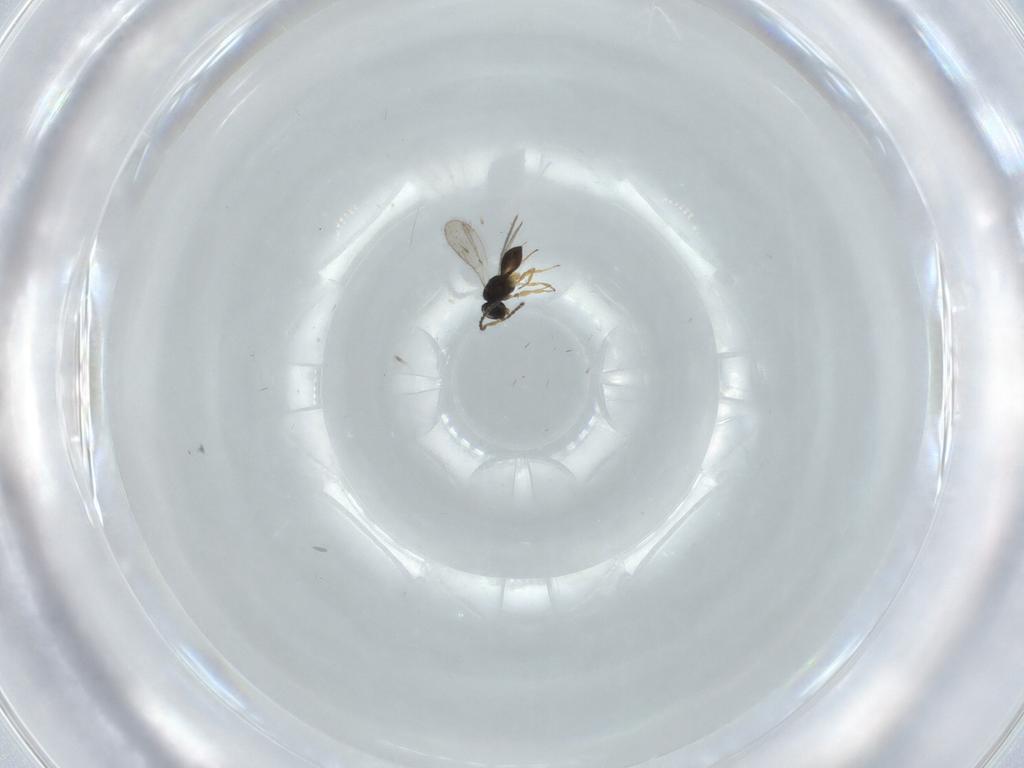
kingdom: Animalia
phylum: Arthropoda
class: Insecta
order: Hymenoptera
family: Scelionidae
